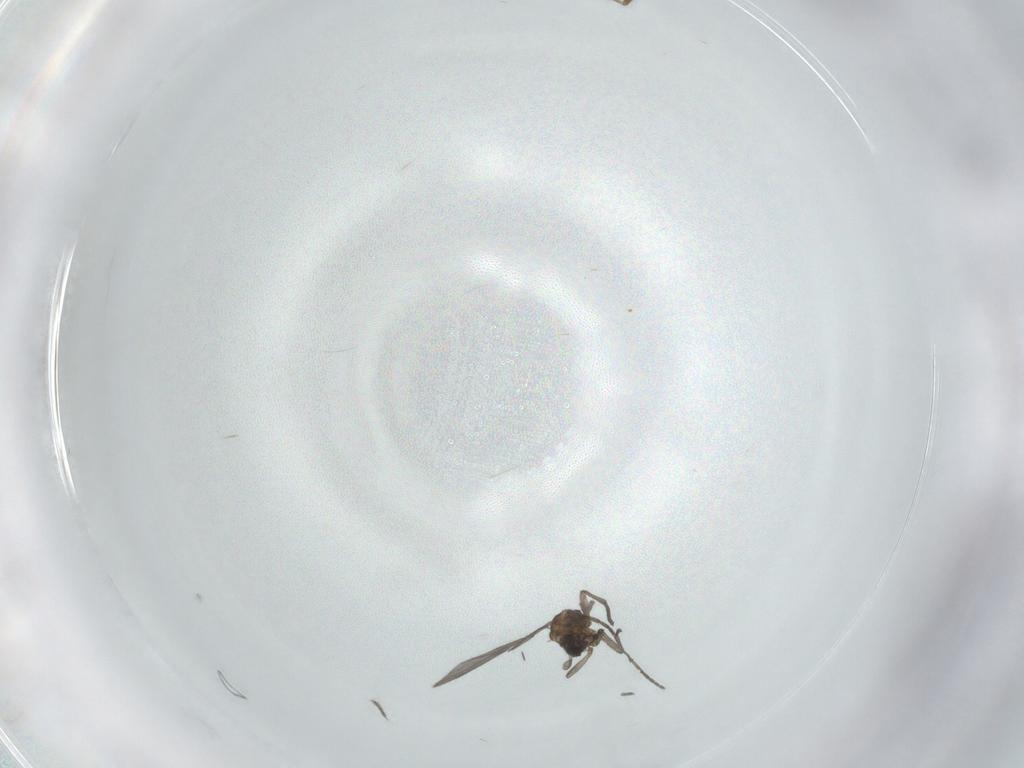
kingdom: Animalia
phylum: Arthropoda
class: Insecta
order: Diptera
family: Sciaridae
